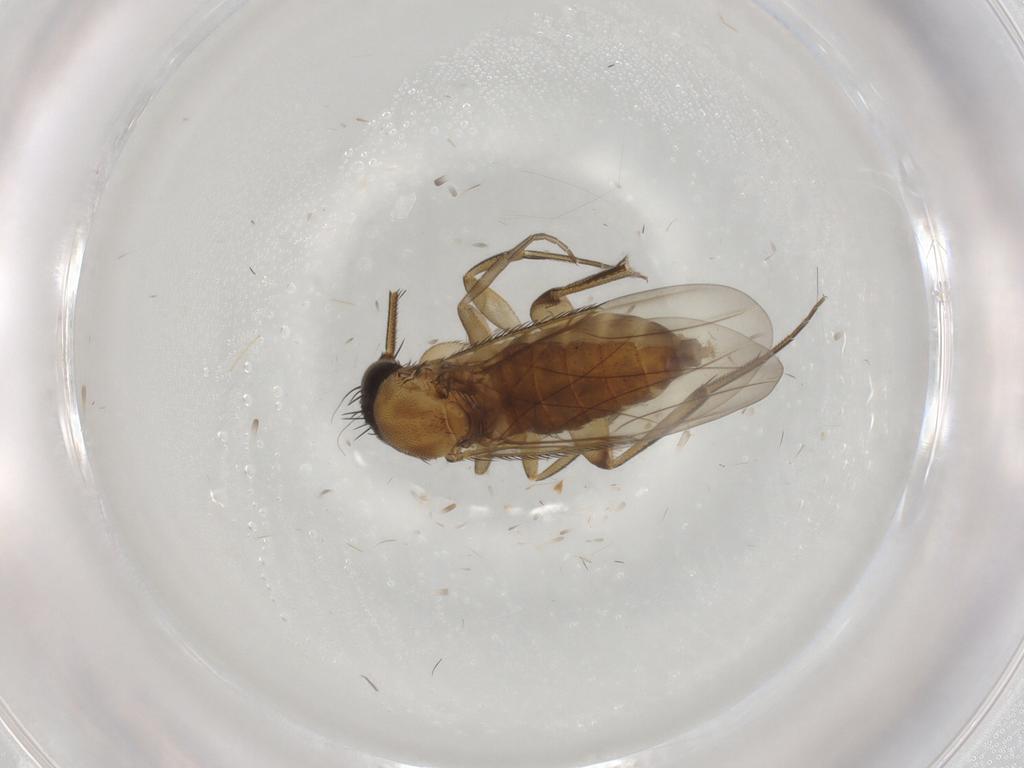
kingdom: Animalia
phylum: Arthropoda
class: Insecta
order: Diptera
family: Phoridae
